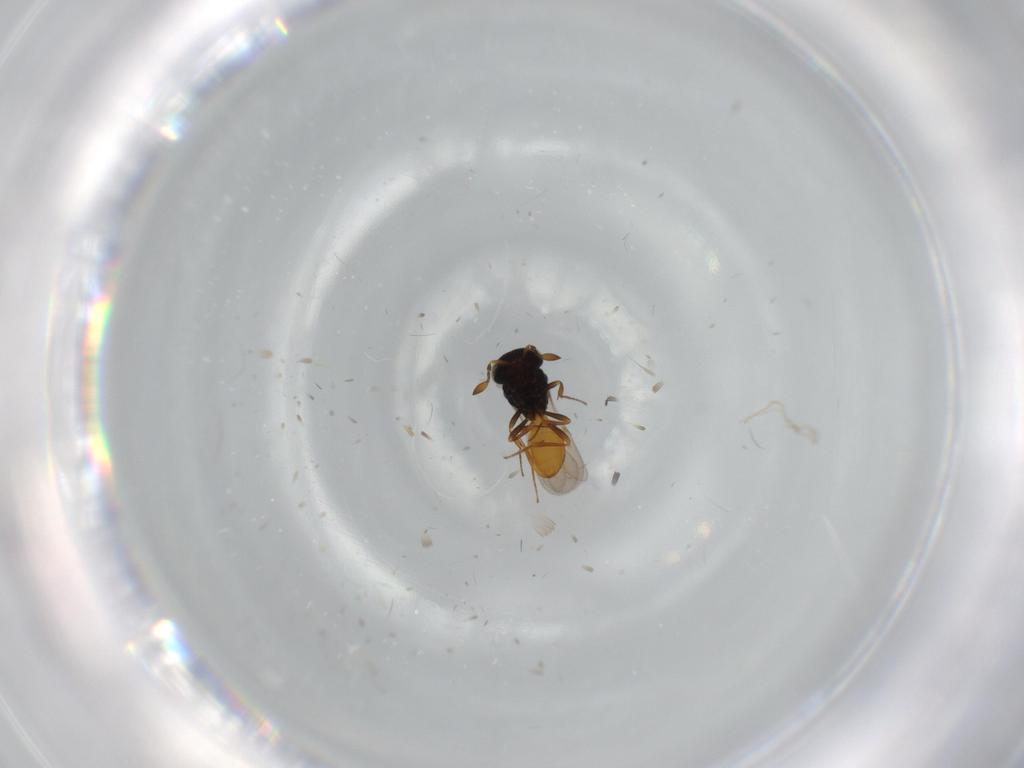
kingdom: Animalia
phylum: Arthropoda
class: Insecta
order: Hymenoptera
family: Scelionidae
